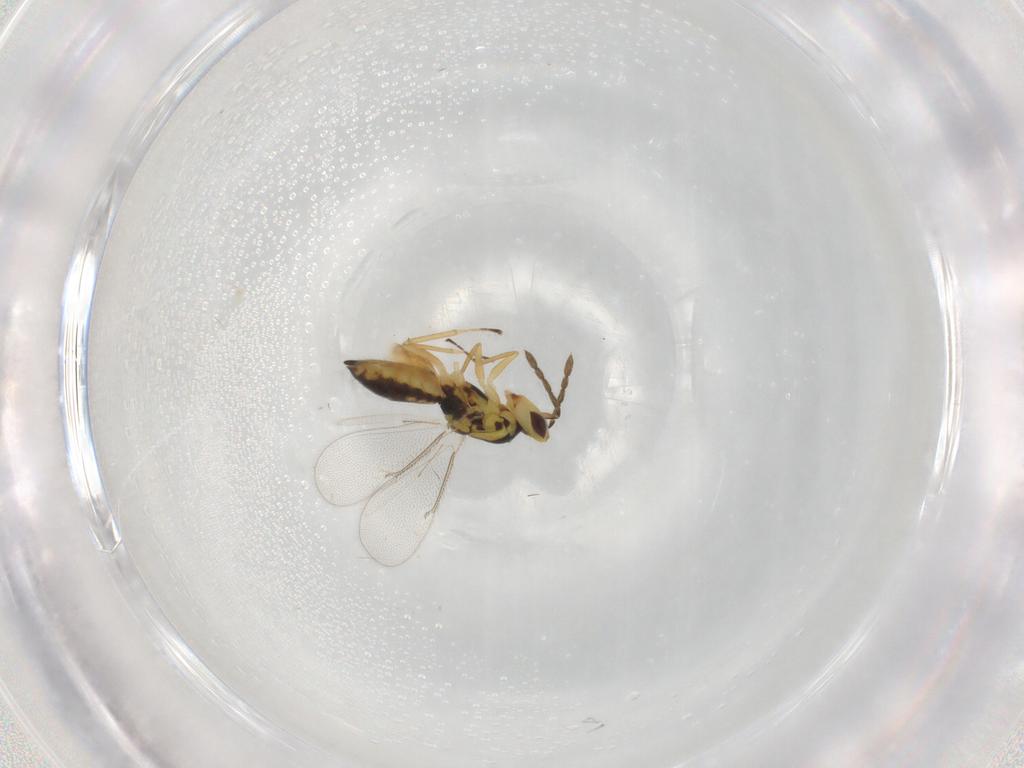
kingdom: Animalia
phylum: Arthropoda
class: Insecta
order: Hymenoptera
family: Eulophidae
